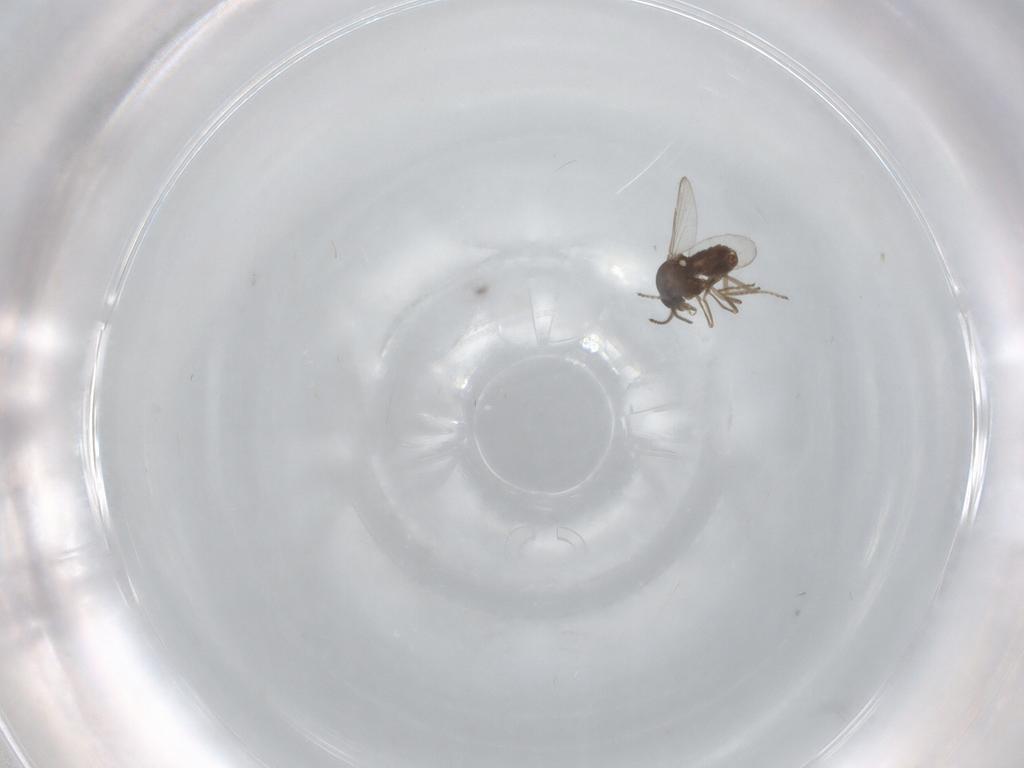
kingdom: Animalia
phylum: Arthropoda
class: Insecta
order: Diptera
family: Ceratopogonidae
